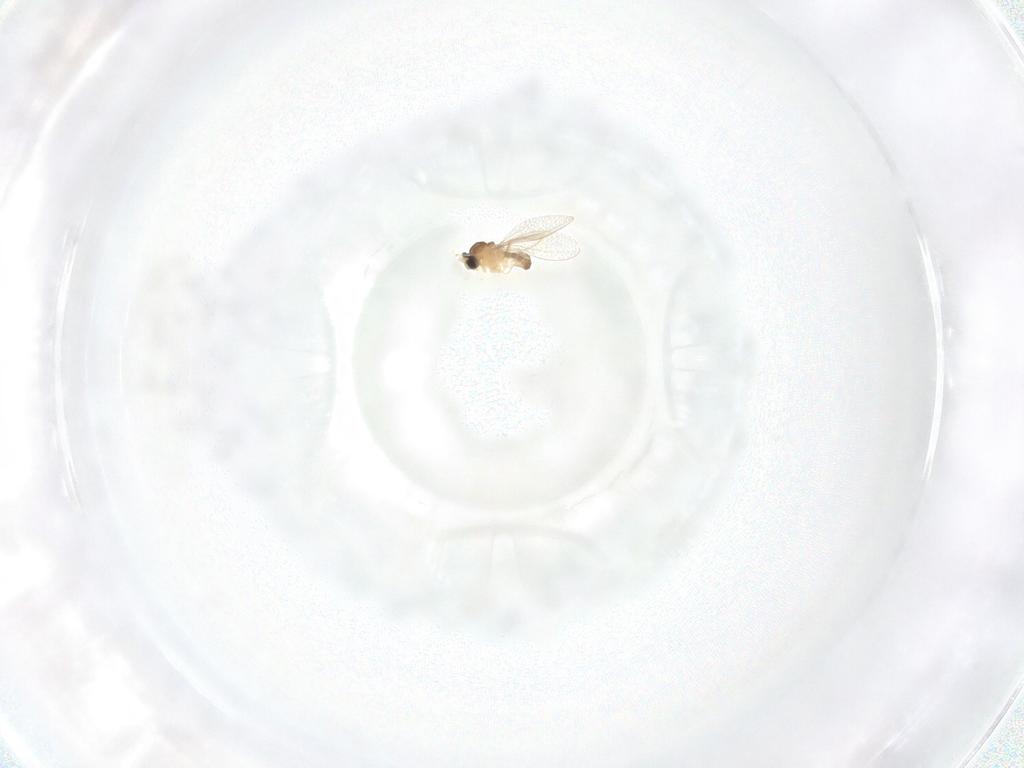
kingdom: Animalia
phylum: Arthropoda
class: Insecta
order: Diptera
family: Cecidomyiidae
